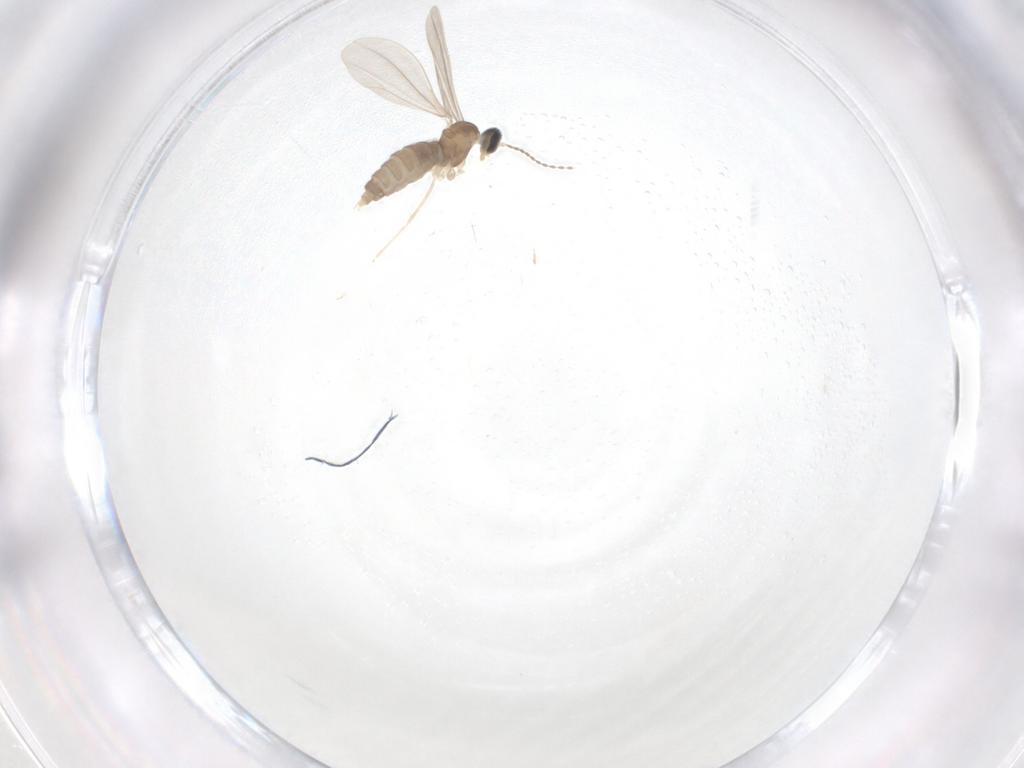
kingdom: Animalia
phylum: Arthropoda
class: Insecta
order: Diptera
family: Cecidomyiidae
